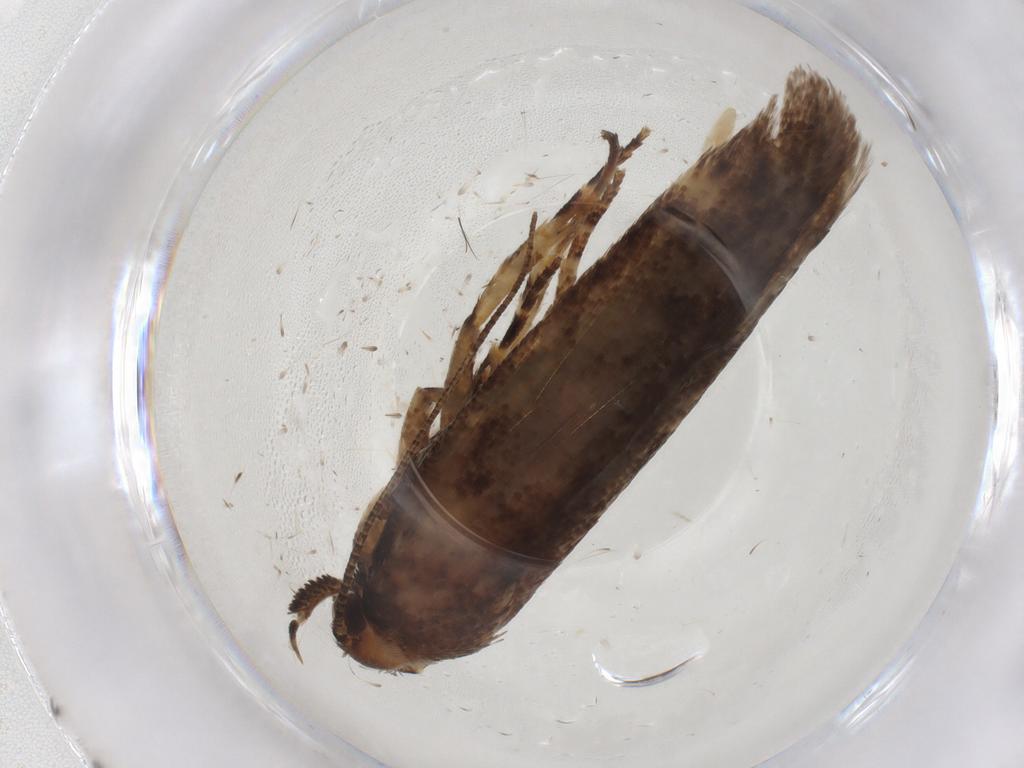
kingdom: Animalia
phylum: Arthropoda
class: Insecta
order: Lepidoptera
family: Gelechiidae
